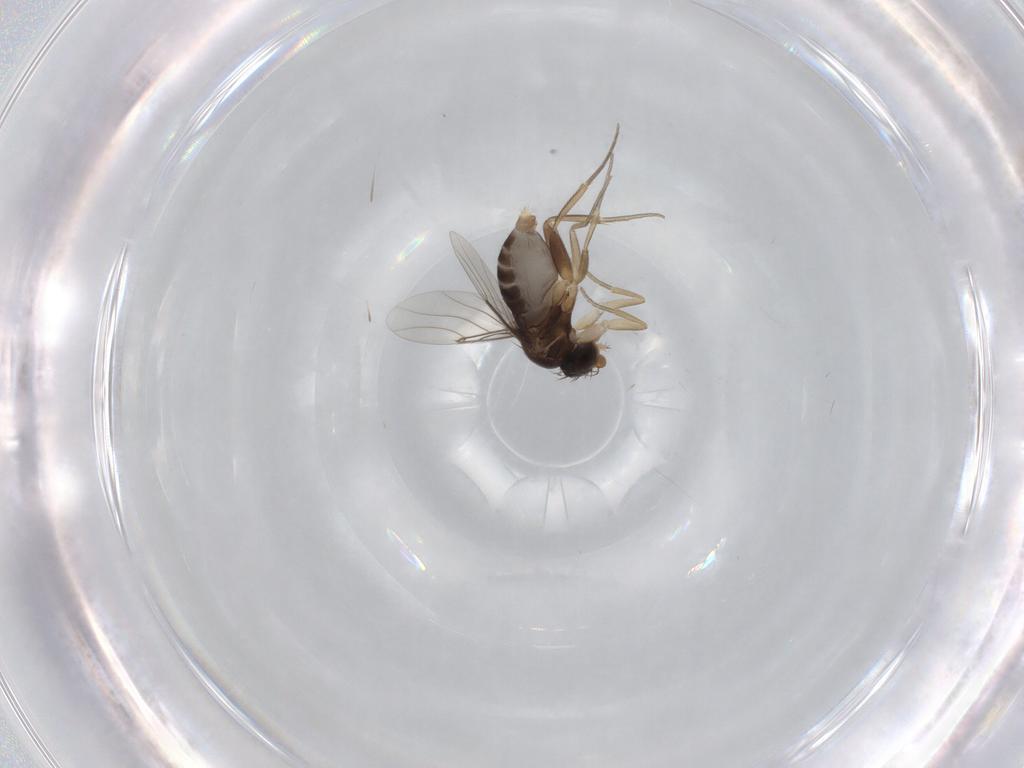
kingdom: Animalia
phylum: Arthropoda
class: Insecta
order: Diptera
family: Phoridae
